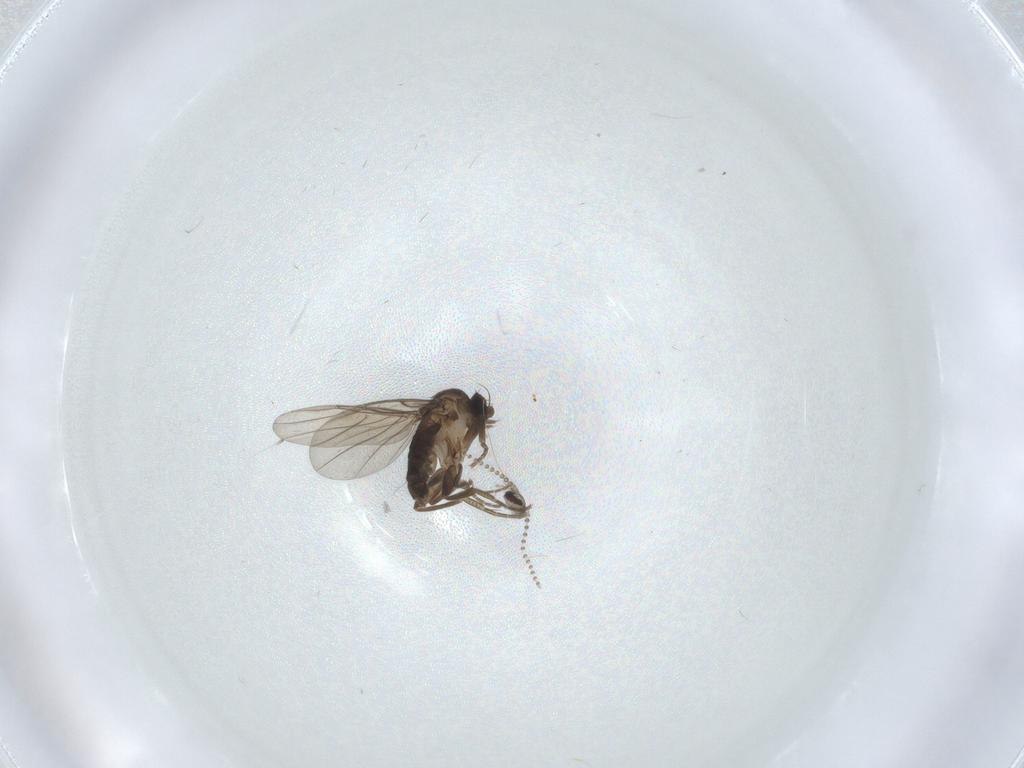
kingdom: Animalia
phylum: Arthropoda
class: Insecta
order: Diptera
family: Phoridae
